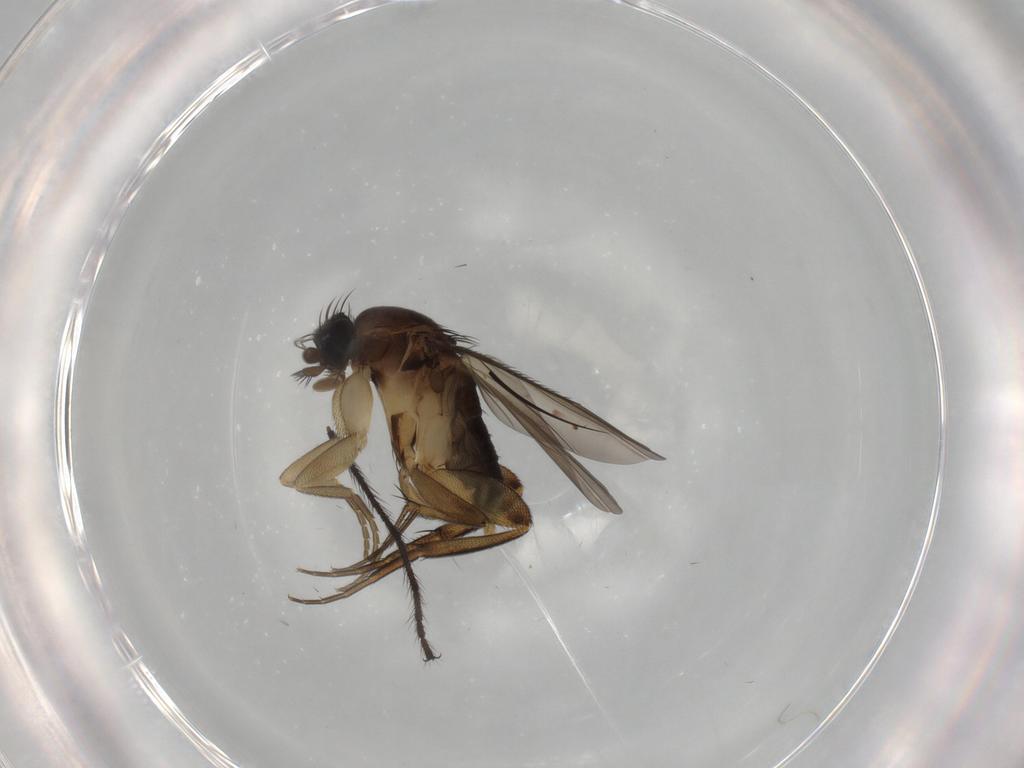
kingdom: Animalia
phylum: Arthropoda
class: Insecta
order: Diptera
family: Phoridae
